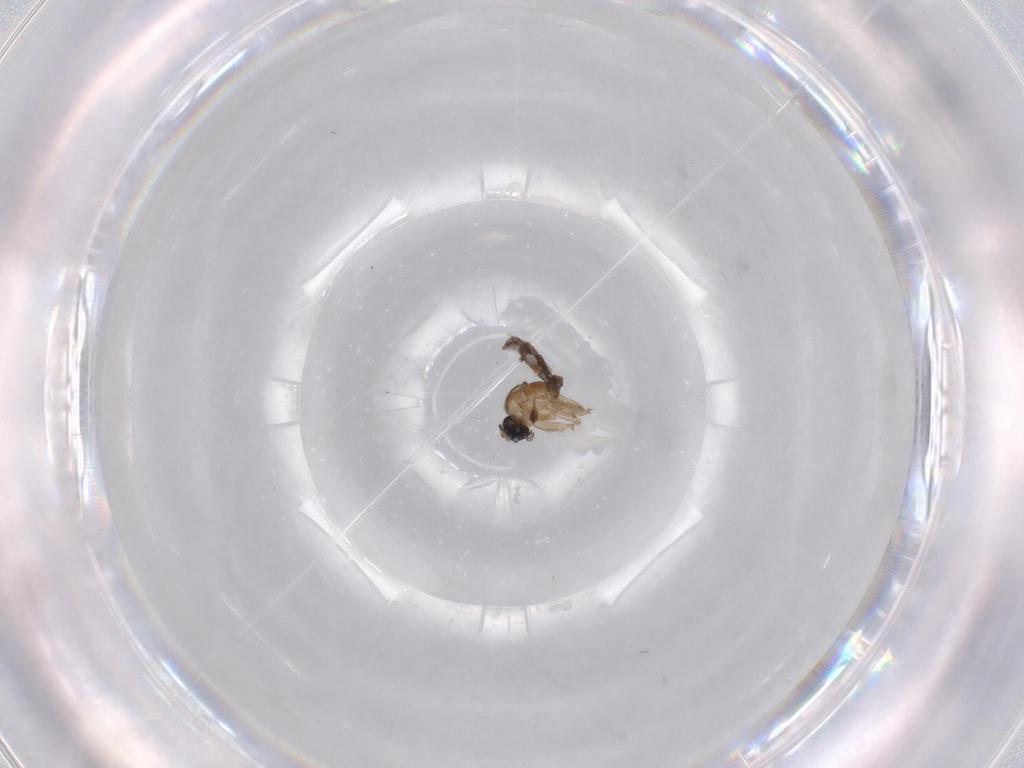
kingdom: Animalia
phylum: Arthropoda
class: Insecta
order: Diptera
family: Cecidomyiidae
